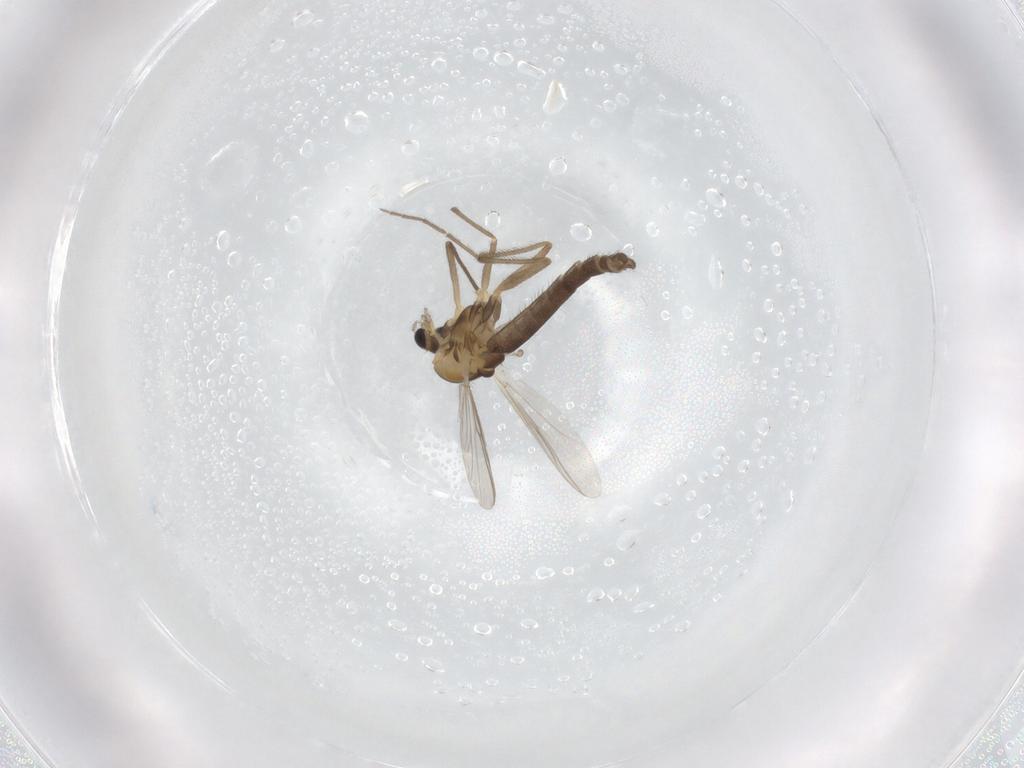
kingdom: Animalia
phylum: Arthropoda
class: Insecta
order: Diptera
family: Chironomidae
